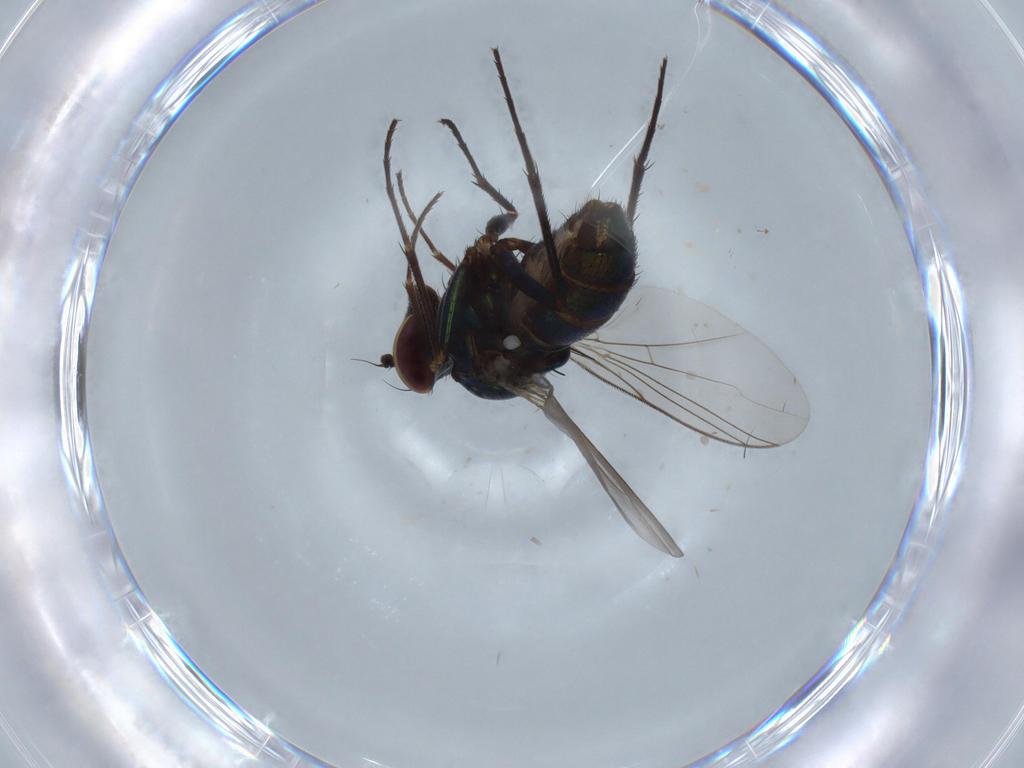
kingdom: Animalia
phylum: Arthropoda
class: Insecta
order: Diptera
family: Dolichopodidae
